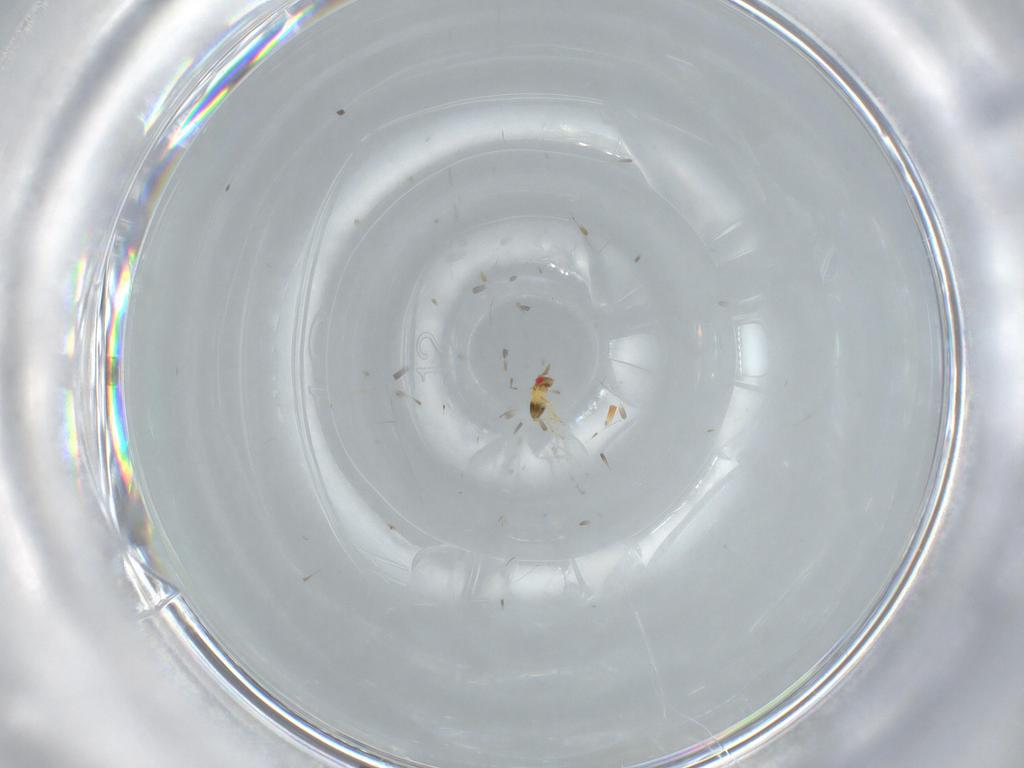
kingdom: Animalia
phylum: Arthropoda
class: Insecta
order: Hymenoptera
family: Trichogrammatidae
